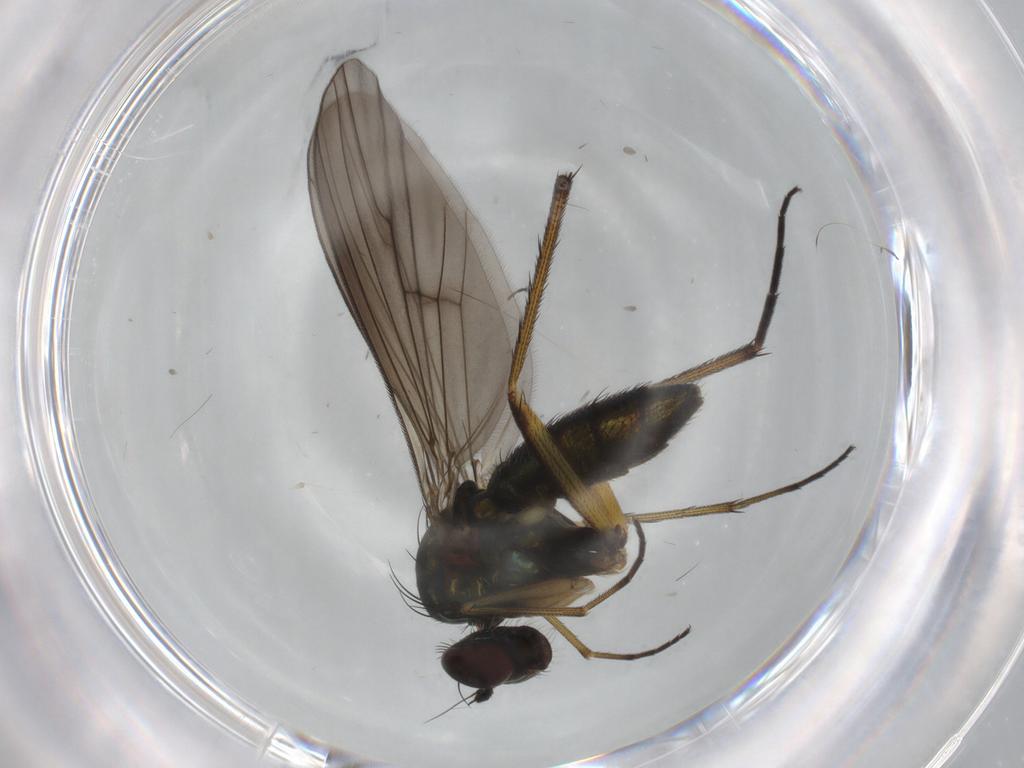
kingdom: Animalia
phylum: Arthropoda
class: Insecta
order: Diptera
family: Dolichopodidae
